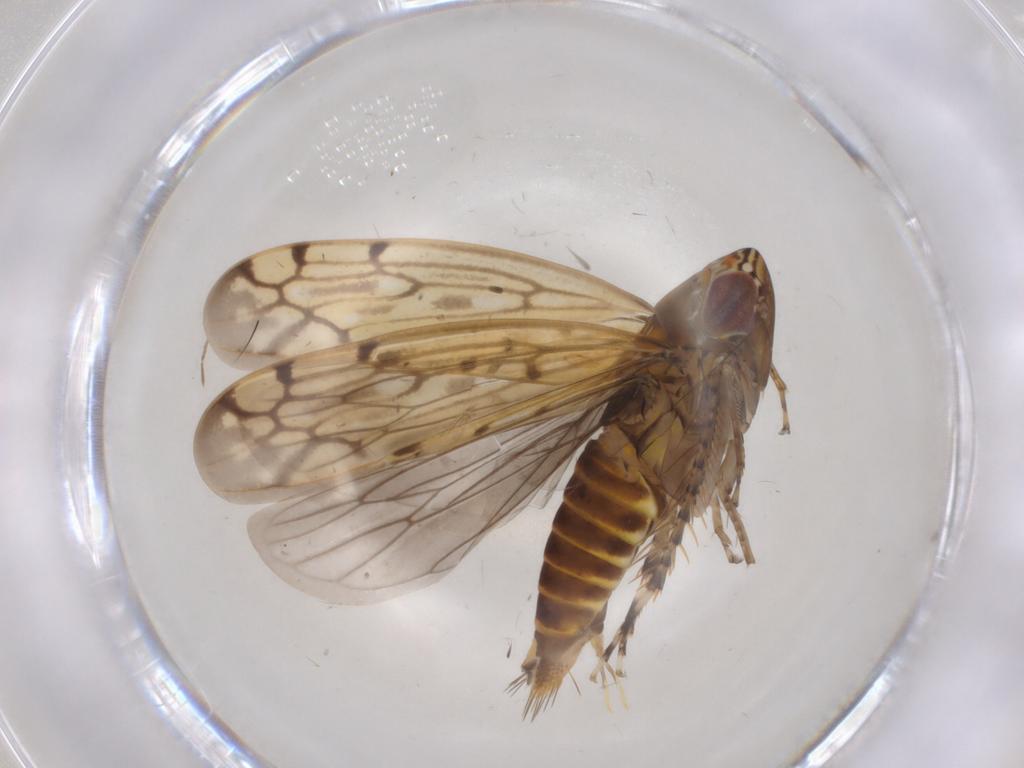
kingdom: Animalia
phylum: Arthropoda
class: Insecta
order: Hemiptera
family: Cicadellidae
